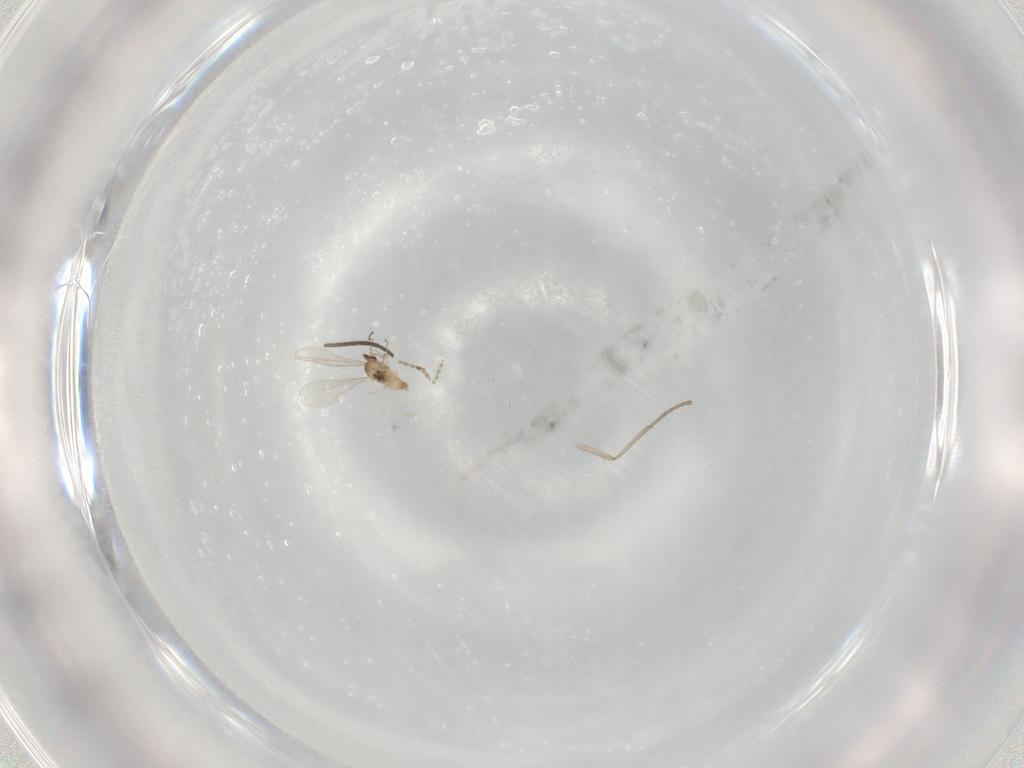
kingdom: Animalia
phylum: Arthropoda
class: Insecta
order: Diptera
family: Psychodidae
